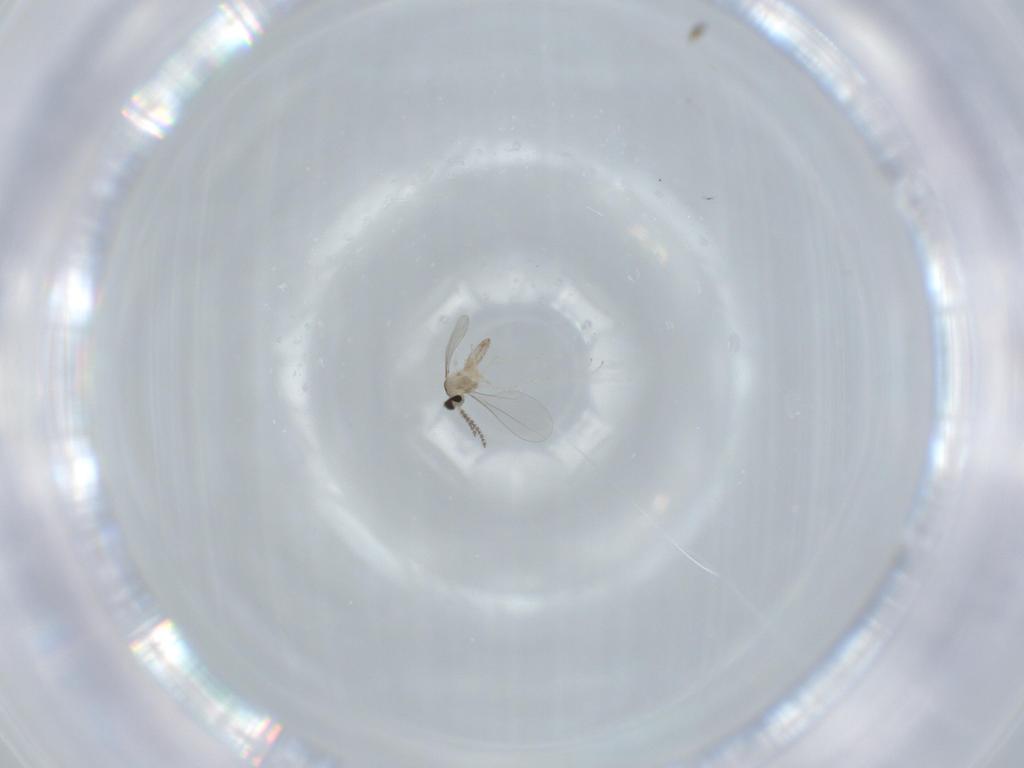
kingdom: Animalia
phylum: Arthropoda
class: Insecta
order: Diptera
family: Cecidomyiidae
